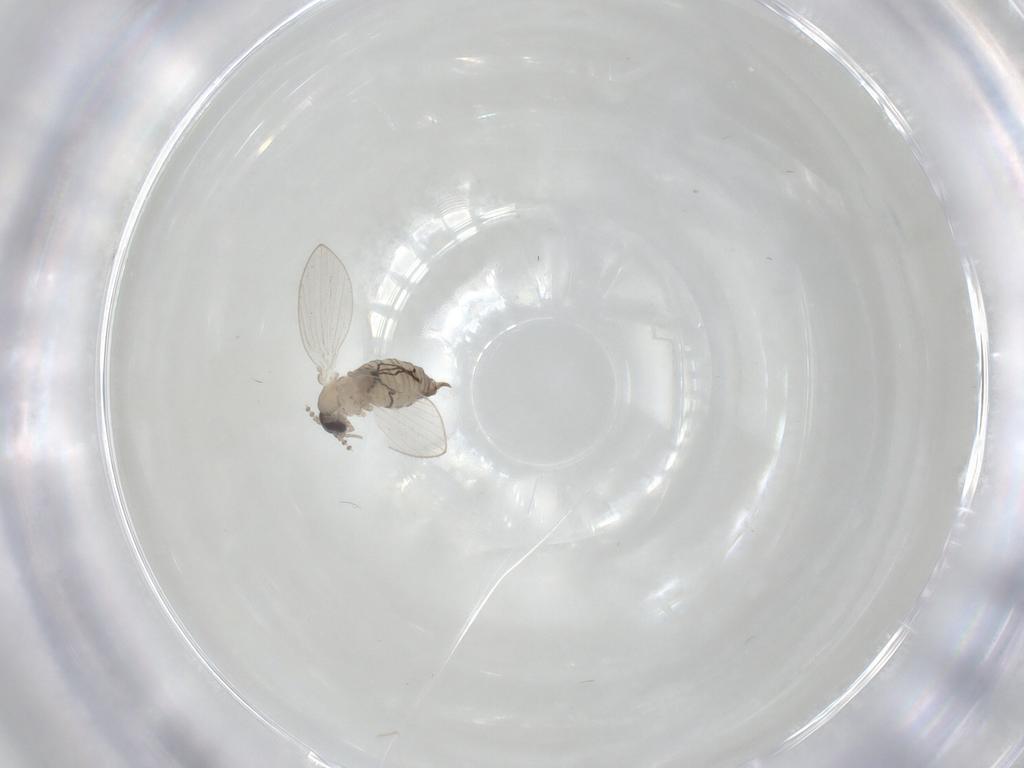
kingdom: Animalia
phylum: Arthropoda
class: Insecta
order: Diptera
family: Psychodidae
